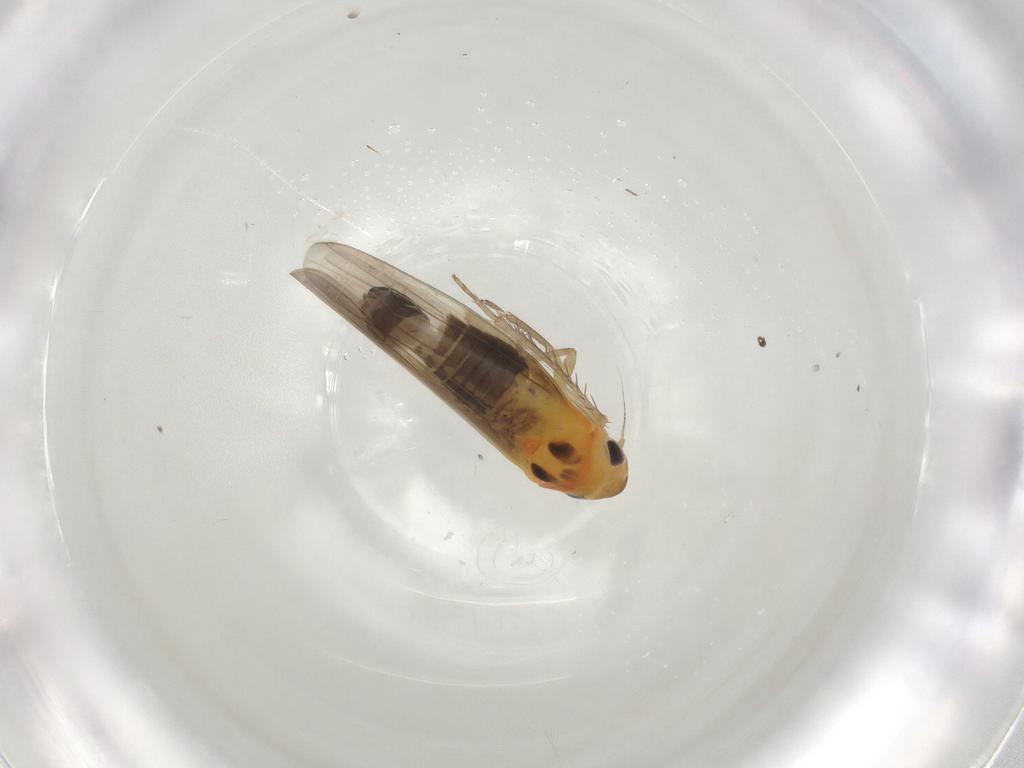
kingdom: Animalia
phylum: Arthropoda
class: Insecta
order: Hemiptera
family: Cicadellidae
